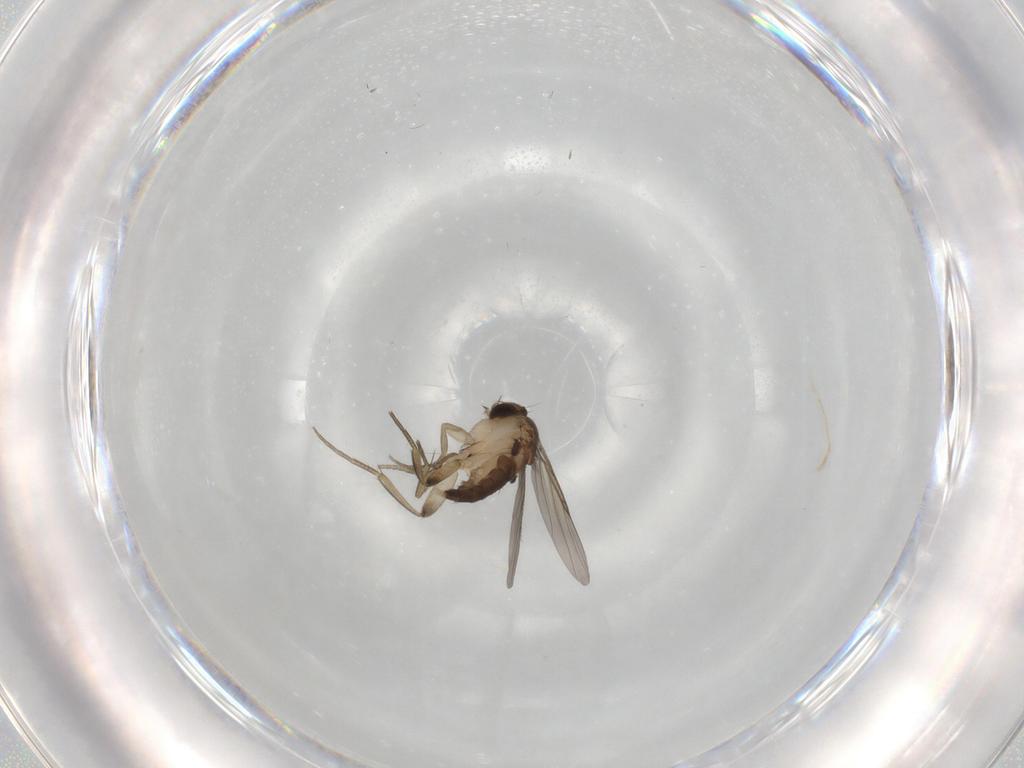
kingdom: Animalia
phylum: Arthropoda
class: Insecta
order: Diptera
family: Phoridae
